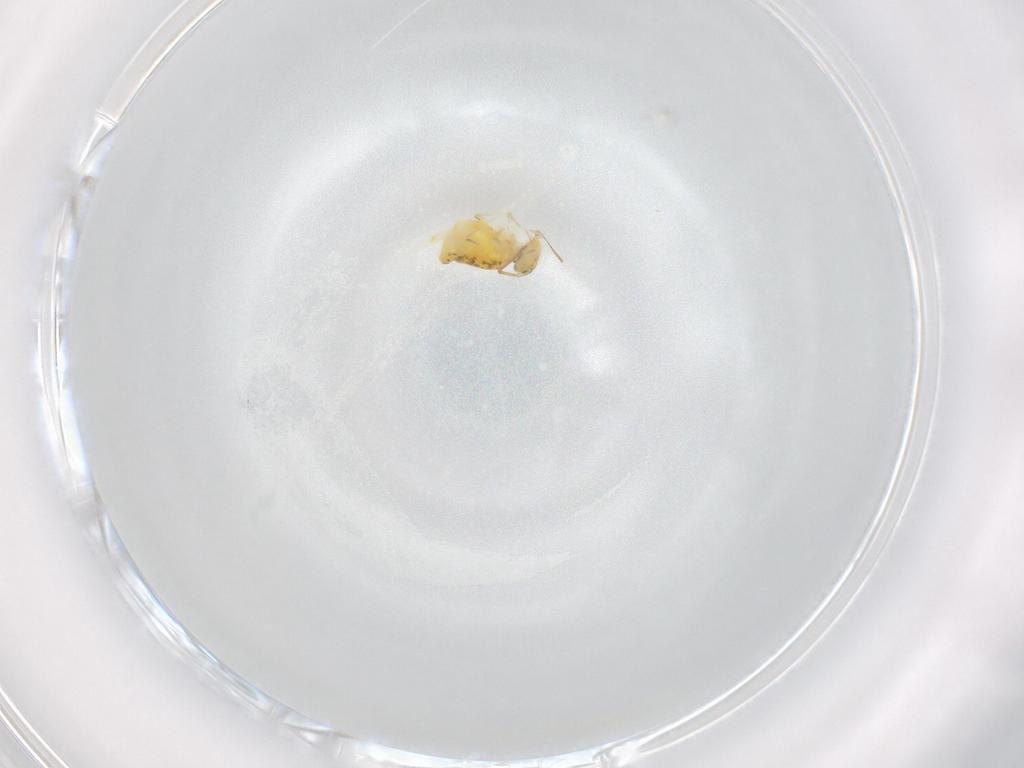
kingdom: Animalia
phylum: Arthropoda
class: Collembola
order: Symphypleona
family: Bourletiellidae
